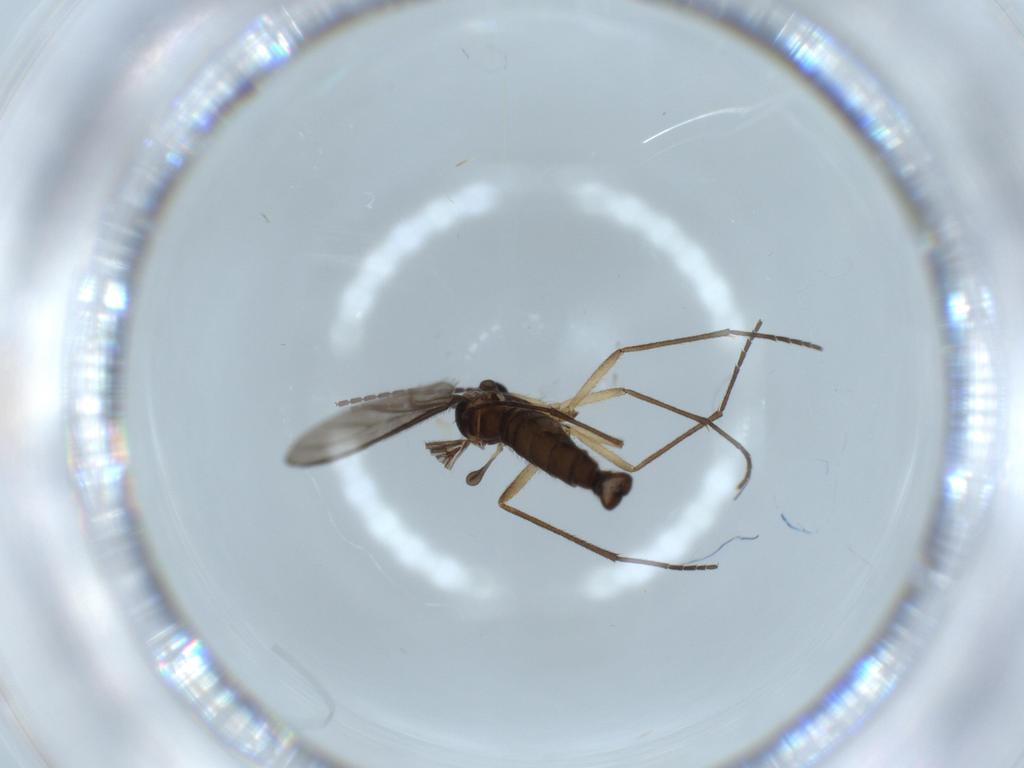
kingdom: Animalia
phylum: Arthropoda
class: Insecta
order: Diptera
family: Sciaridae
